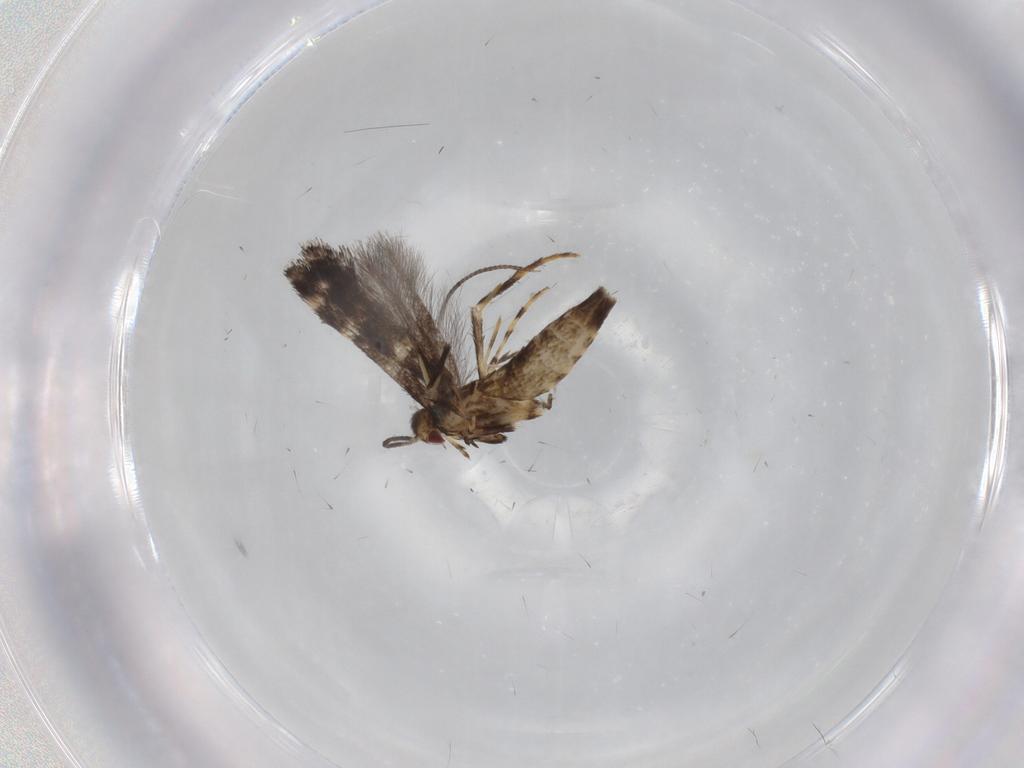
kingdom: Animalia
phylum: Arthropoda
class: Insecta
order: Lepidoptera
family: Gracillariidae
